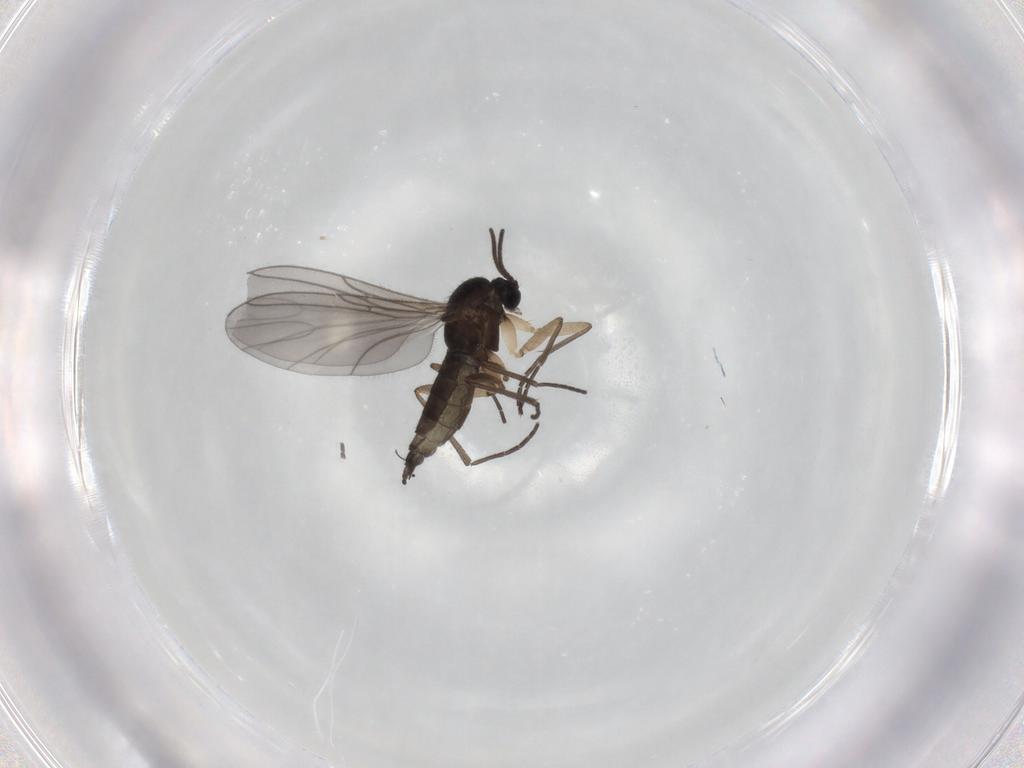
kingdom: Animalia
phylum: Arthropoda
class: Insecta
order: Diptera
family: Sciaridae
